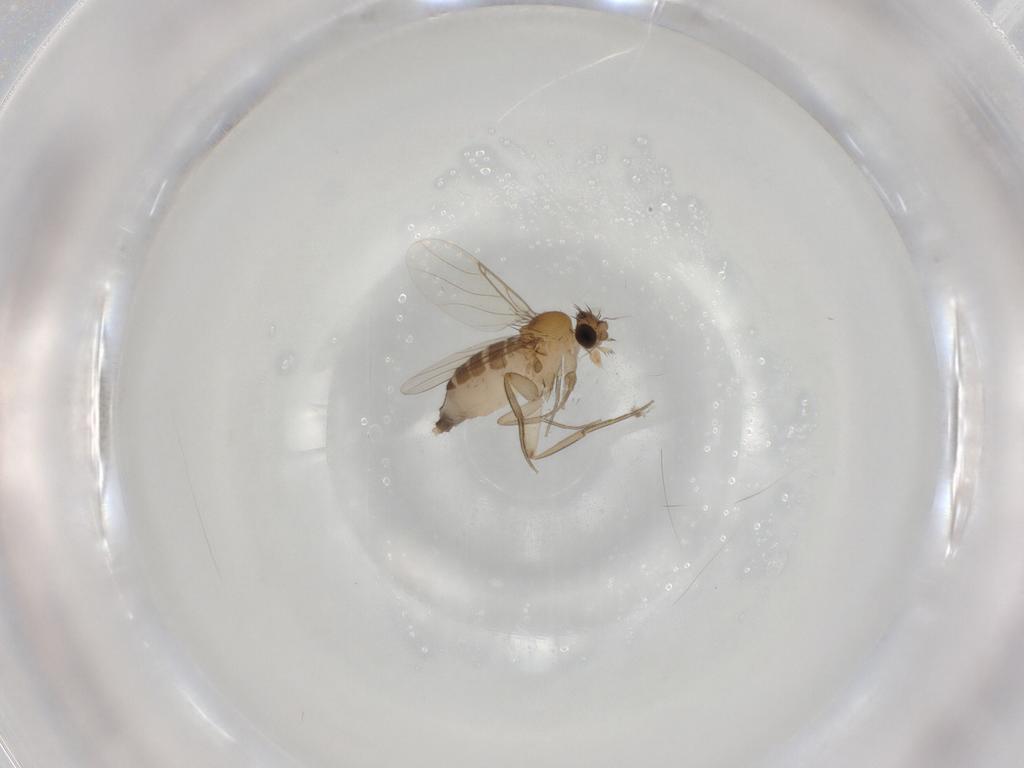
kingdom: Animalia
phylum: Arthropoda
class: Insecta
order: Diptera
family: Phoridae
